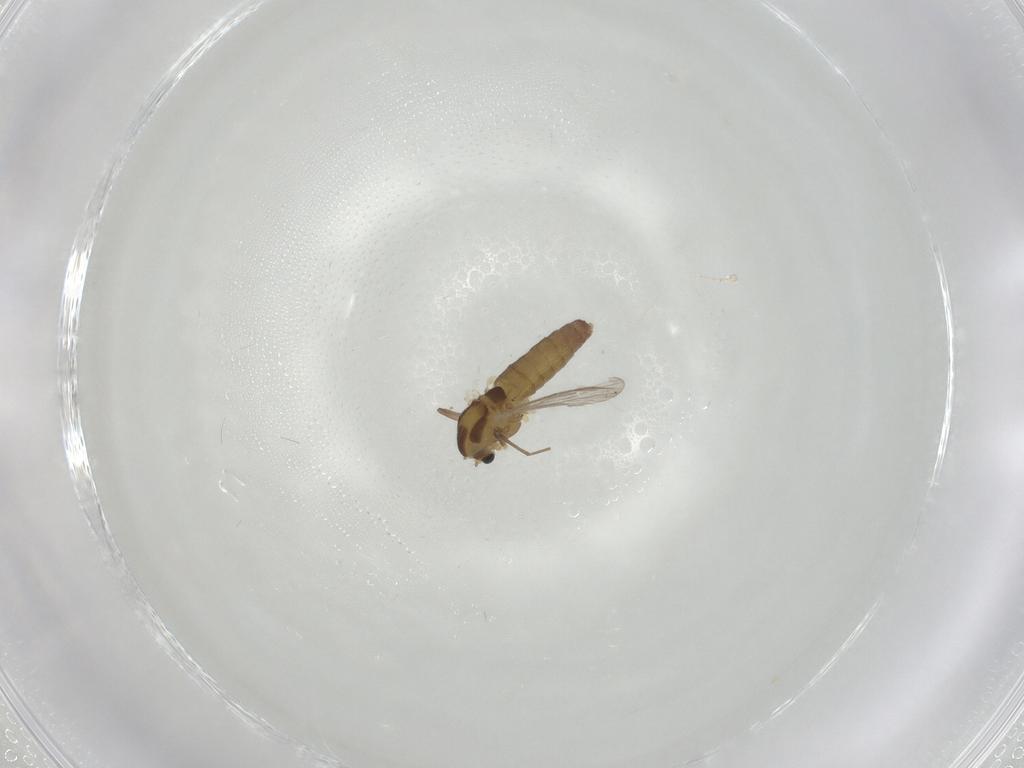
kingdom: Animalia
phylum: Arthropoda
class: Insecta
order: Diptera
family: Chironomidae
